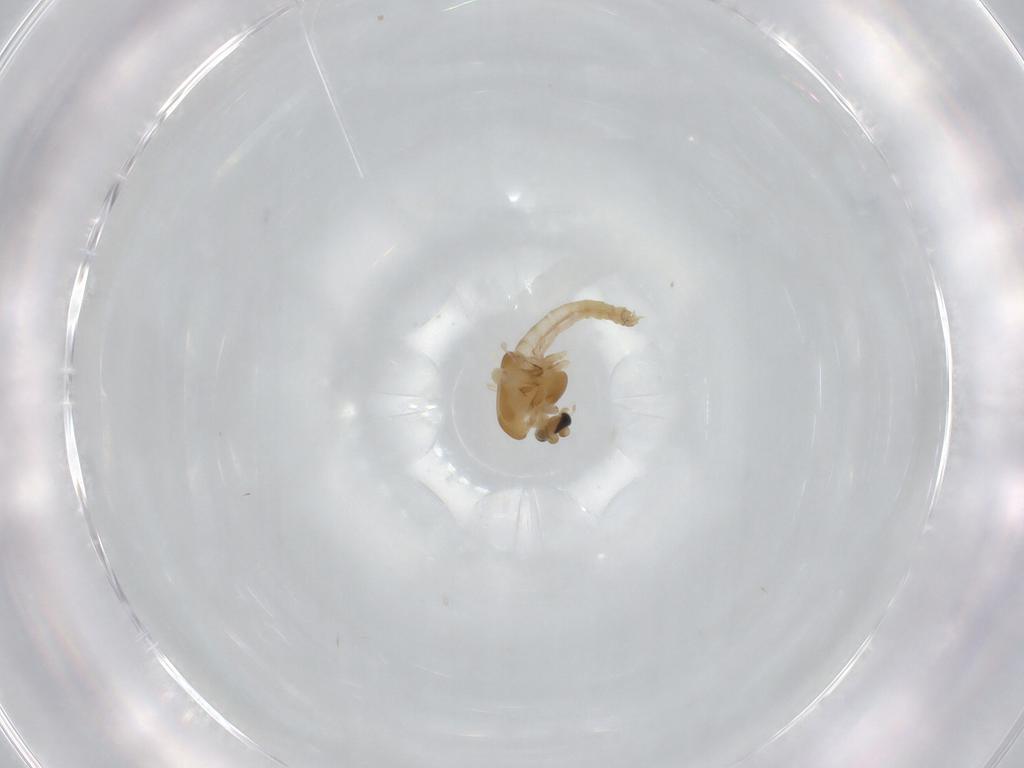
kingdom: Animalia
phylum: Arthropoda
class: Insecta
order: Diptera
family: Chironomidae
